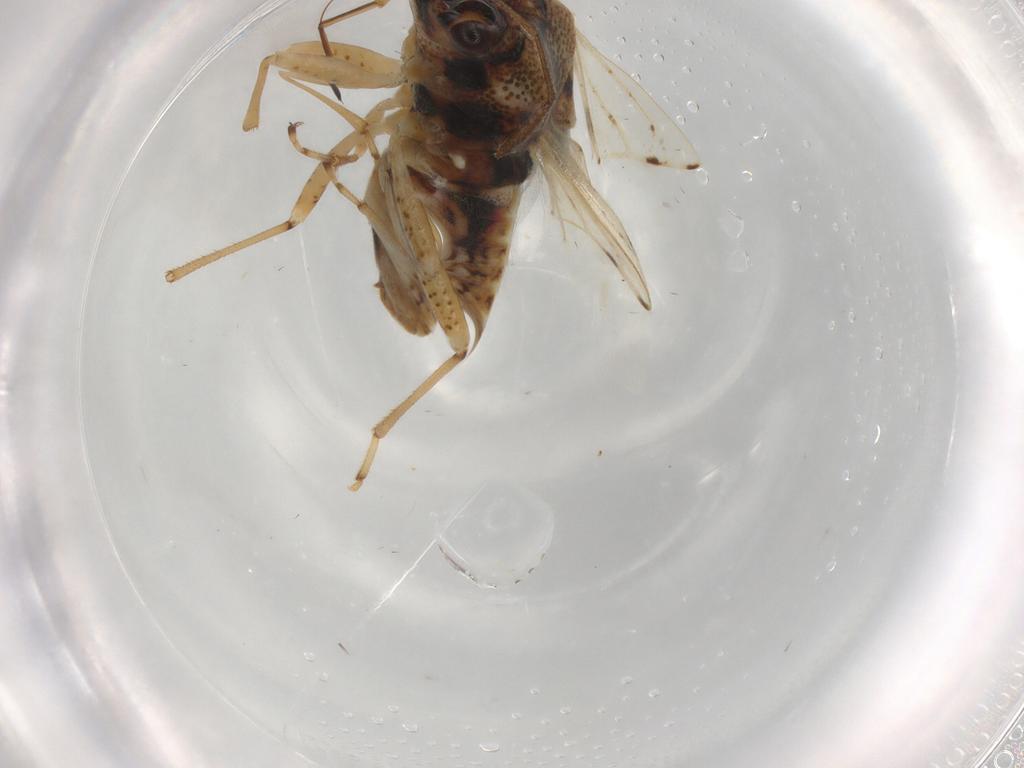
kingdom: Animalia
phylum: Arthropoda
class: Insecta
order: Hemiptera
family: Lygaeidae
